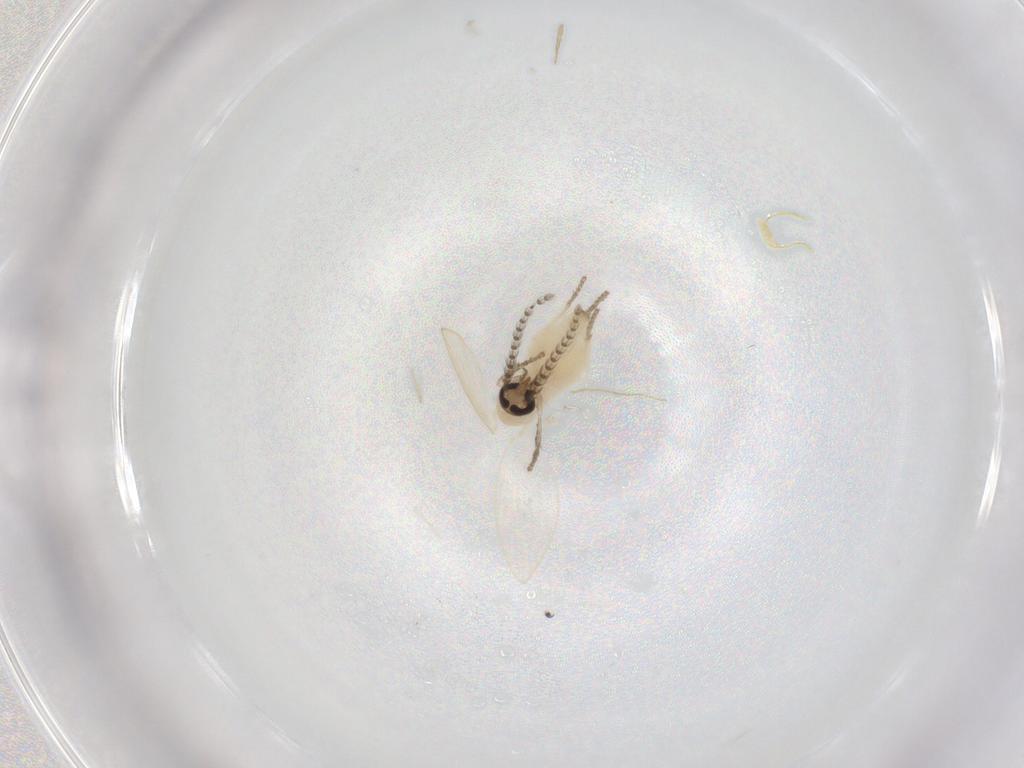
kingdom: Animalia
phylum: Arthropoda
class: Insecta
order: Diptera
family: Psychodidae
